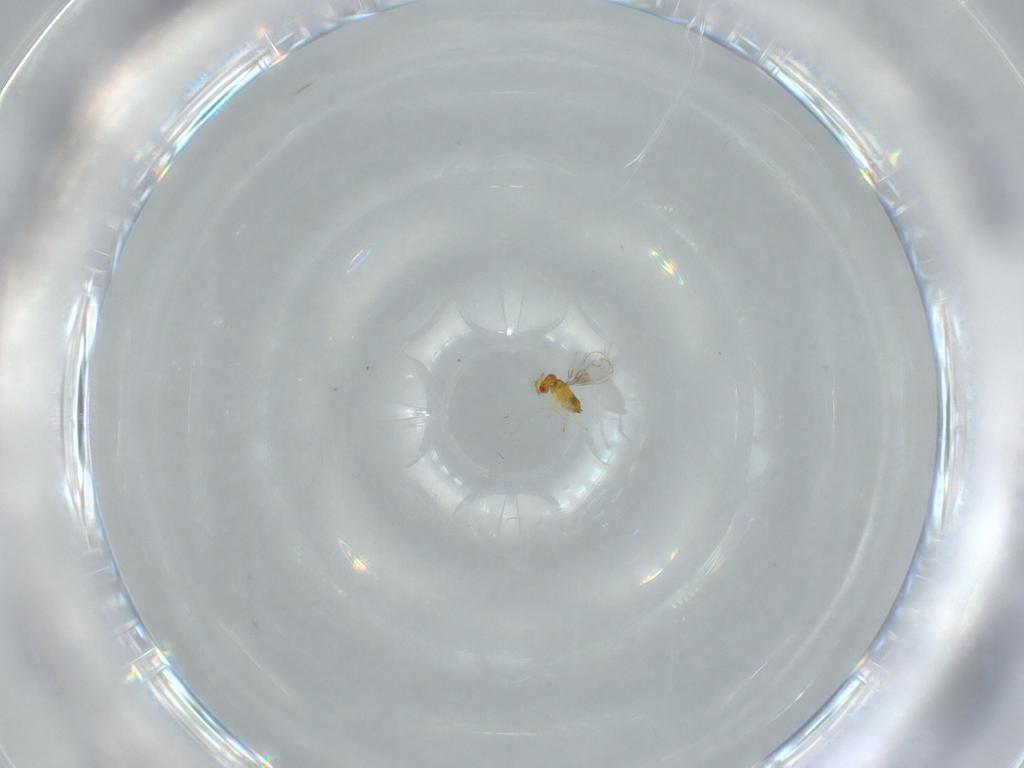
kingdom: Animalia
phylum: Arthropoda
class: Insecta
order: Hymenoptera
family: Trichogrammatidae
